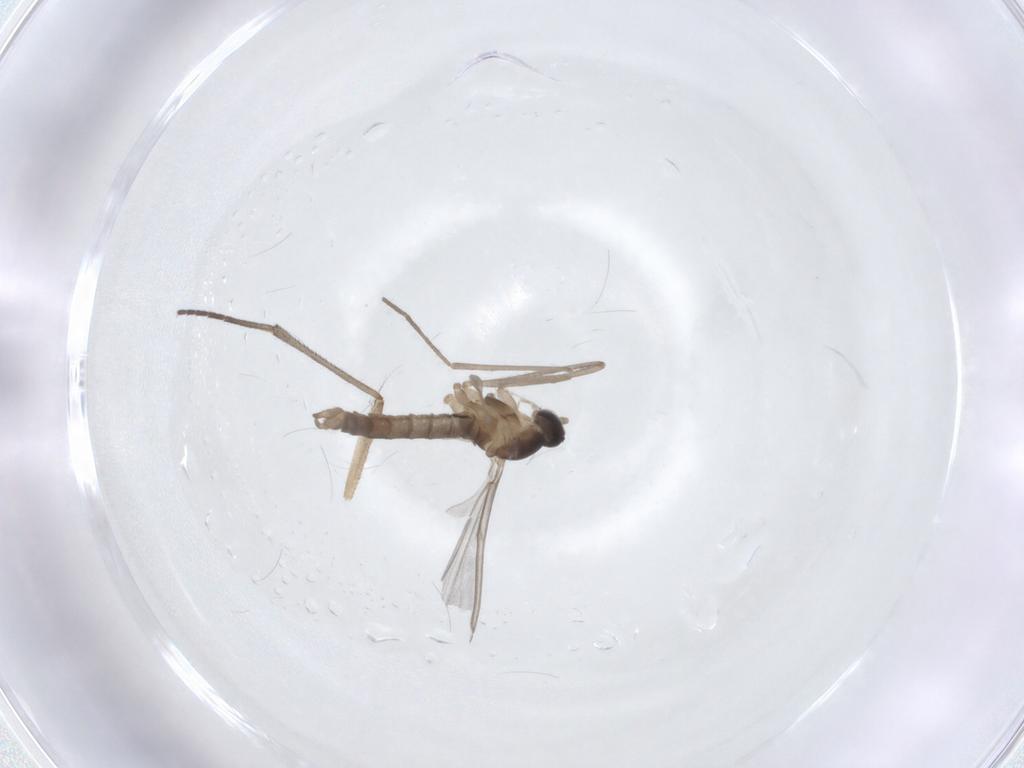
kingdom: Animalia
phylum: Arthropoda
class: Insecta
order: Diptera
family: Cecidomyiidae
